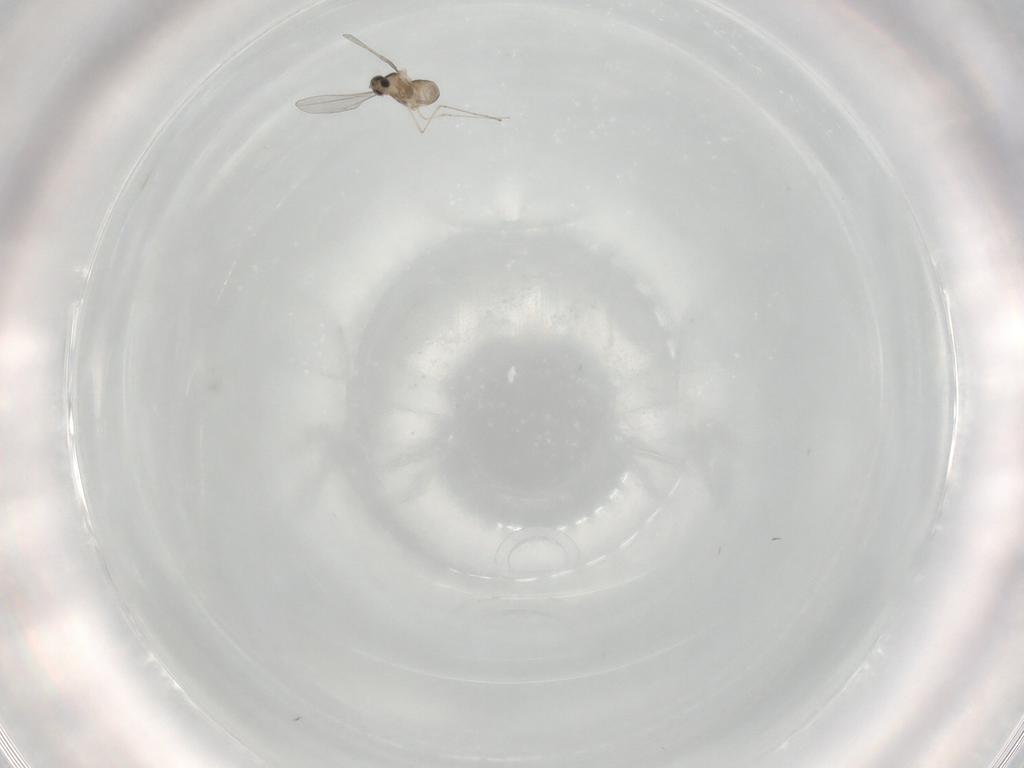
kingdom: Animalia
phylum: Arthropoda
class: Insecta
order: Diptera
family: Cecidomyiidae
